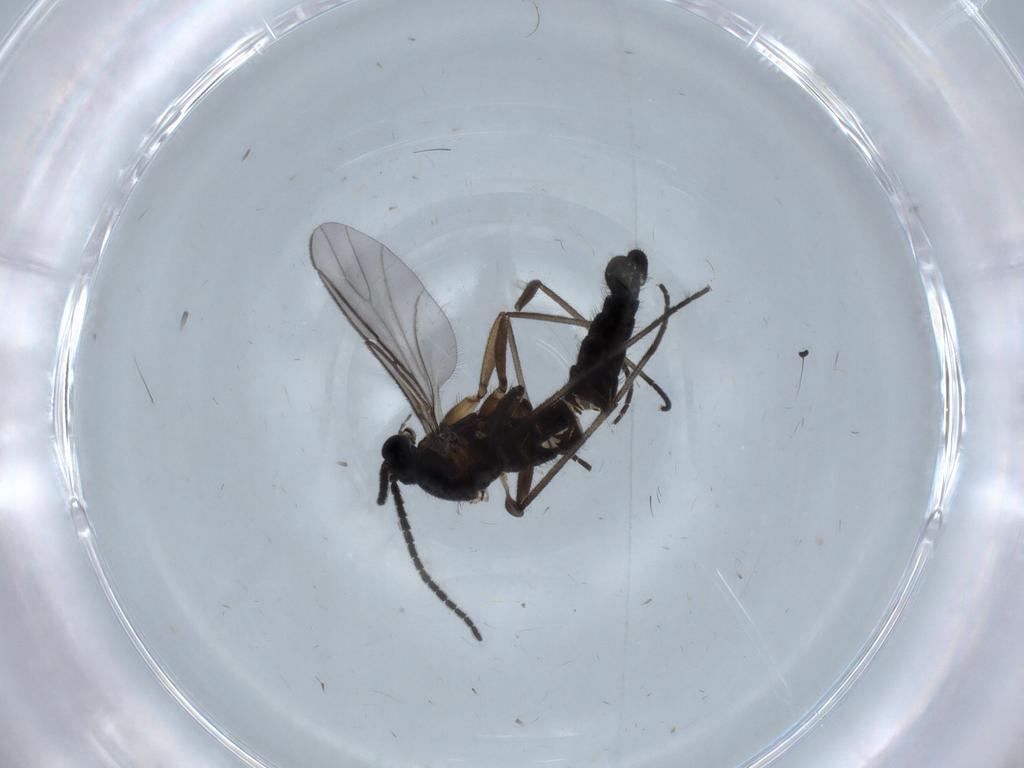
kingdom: Animalia
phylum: Arthropoda
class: Insecta
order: Diptera
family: Sciaridae
